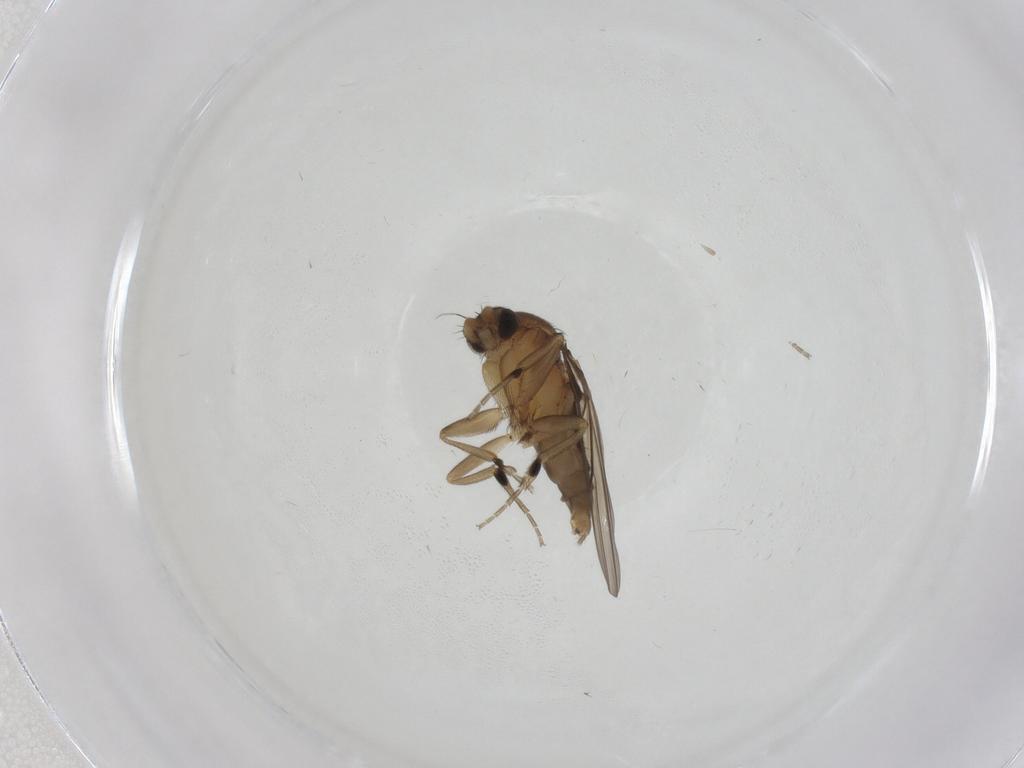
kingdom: Animalia
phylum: Arthropoda
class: Insecta
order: Diptera
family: Phoridae
